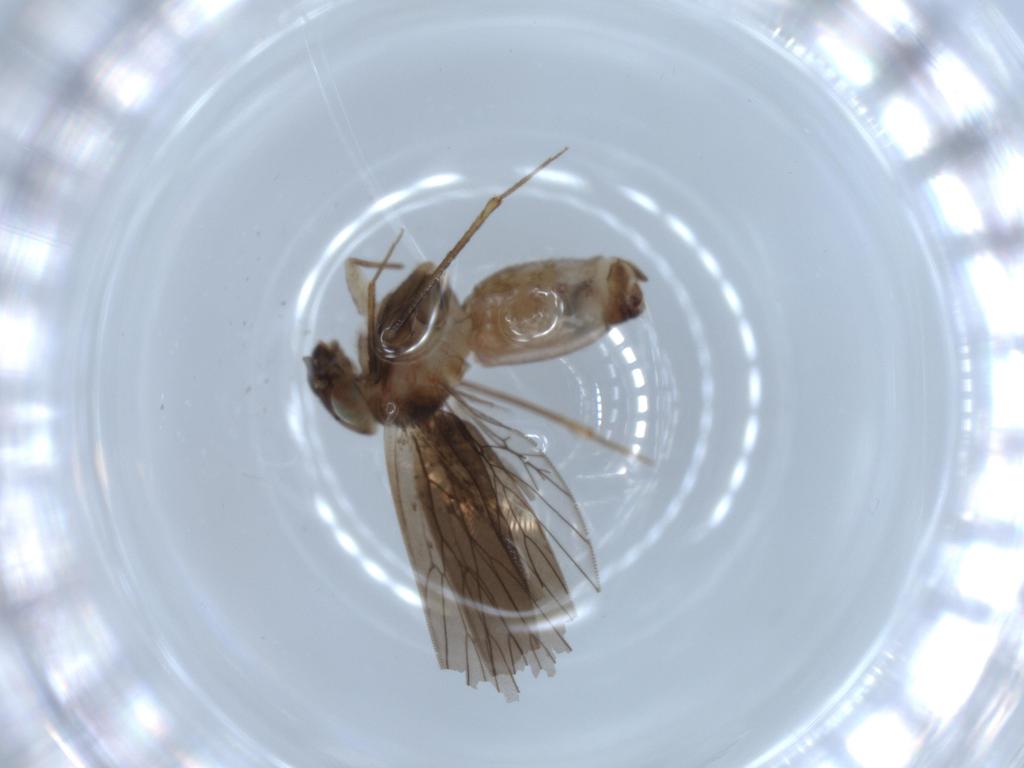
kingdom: Animalia
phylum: Arthropoda
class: Insecta
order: Psocodea
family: Lepidopsocidae
